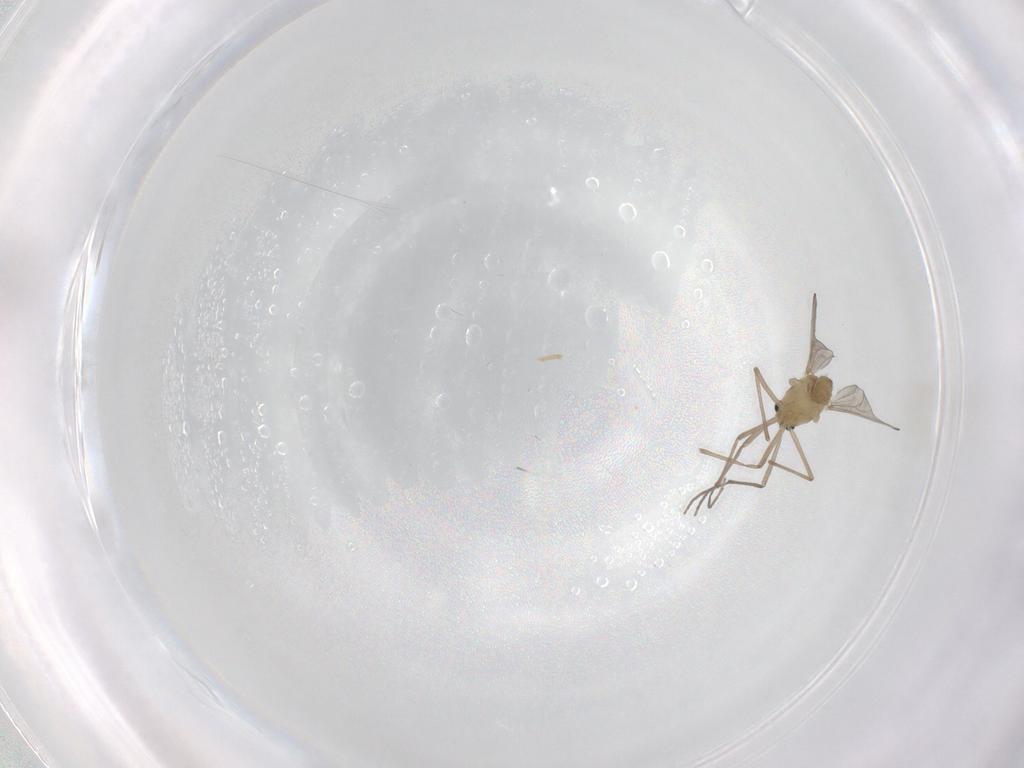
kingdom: Animalia
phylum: Arthropoda
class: Insecta
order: Diptera
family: Sciaridae
